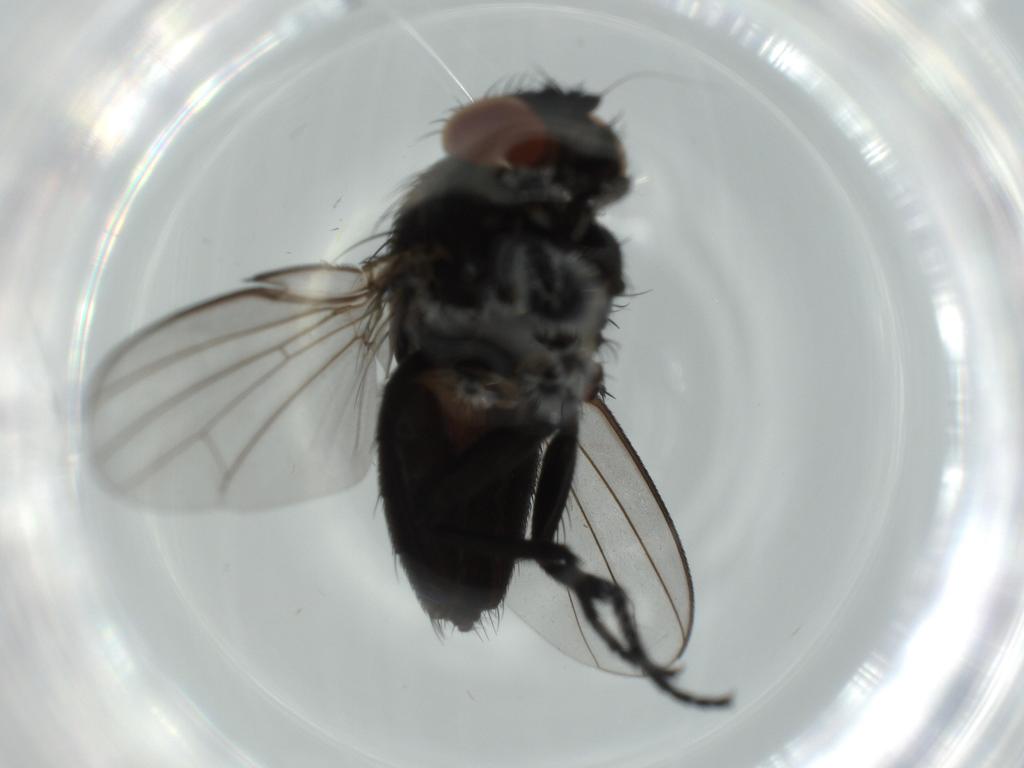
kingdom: Animalia
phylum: Arthropoda
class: Insecta
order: Diptera
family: Milichiidae
